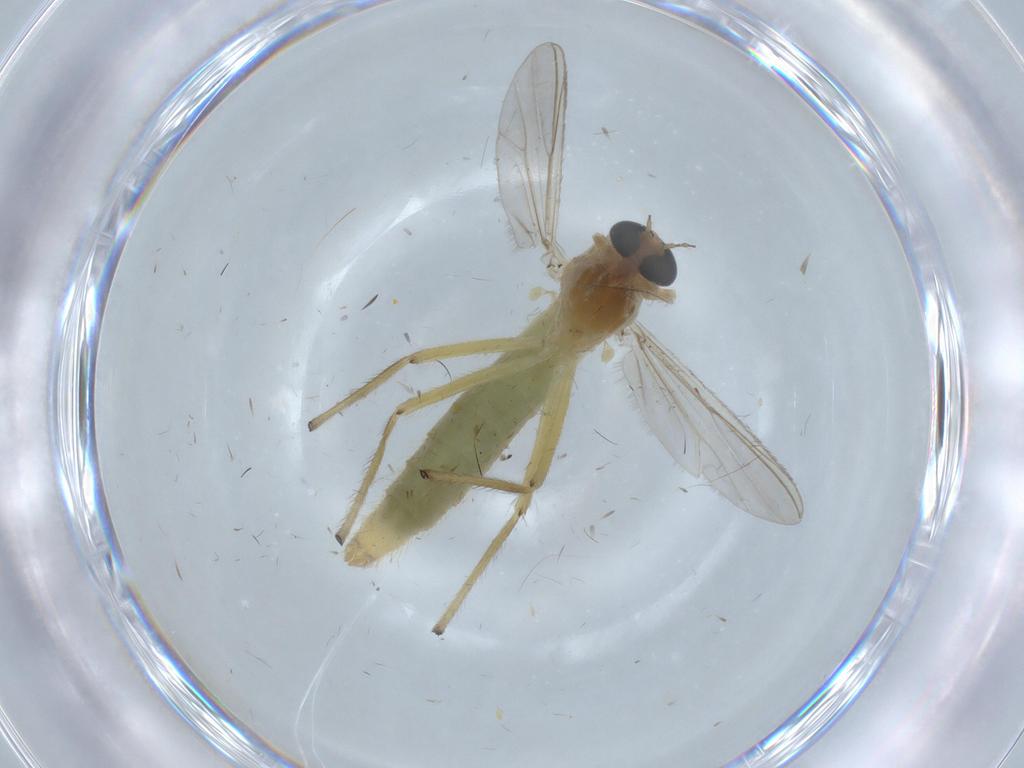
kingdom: Animalia
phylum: Arthropoda
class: Insecta
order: Diptera
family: Chironomidae
